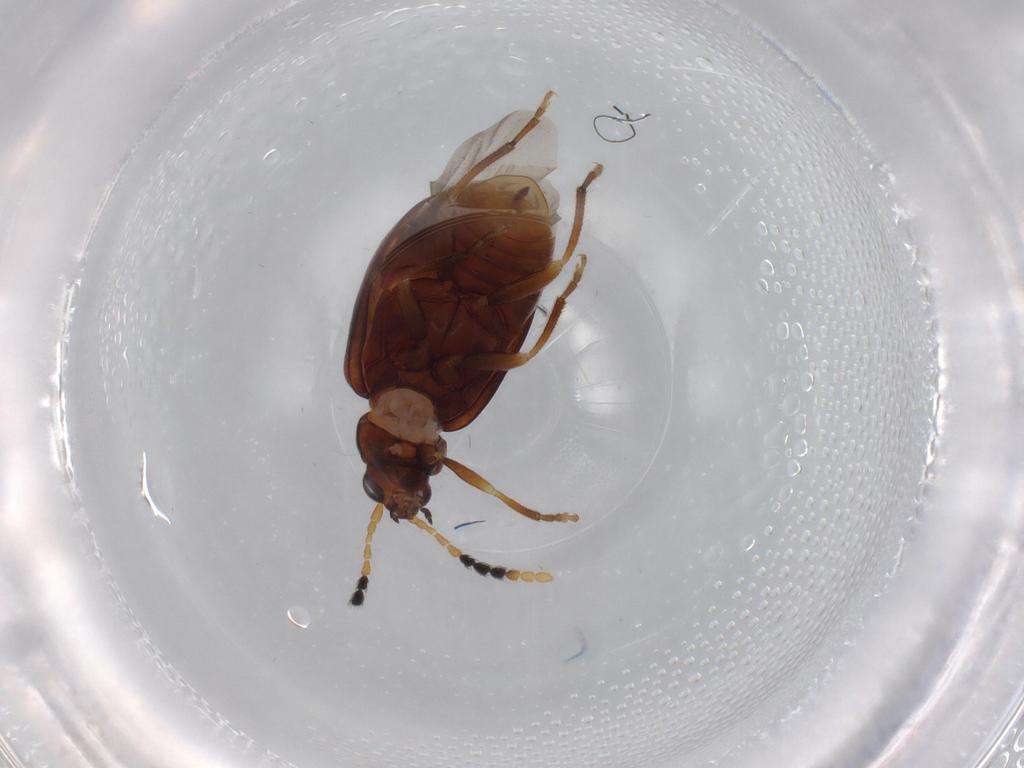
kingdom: Animalia
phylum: Arthropoda
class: Insecta
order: Coleoptera
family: Chrysomelidae
